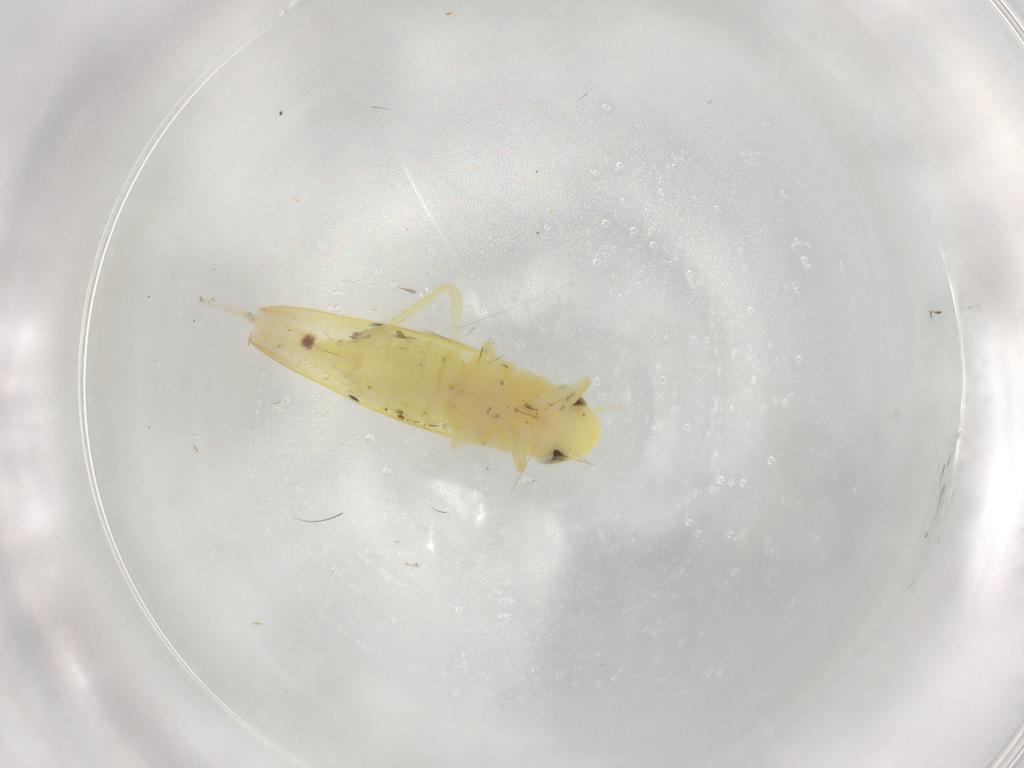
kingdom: Animalia
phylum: Arthropoda
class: Insecta
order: Hemiptera
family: Cicadellidae
